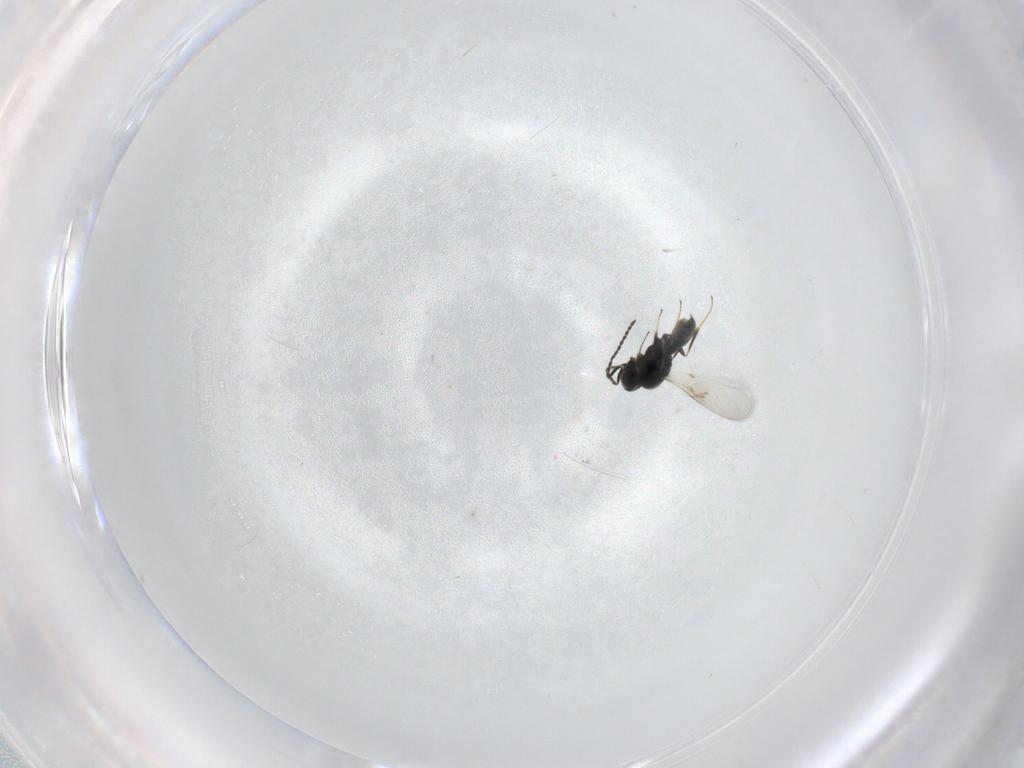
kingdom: Animalia
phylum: Arthropoda
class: Insecta
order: Hymenoptera
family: Scelionidae
